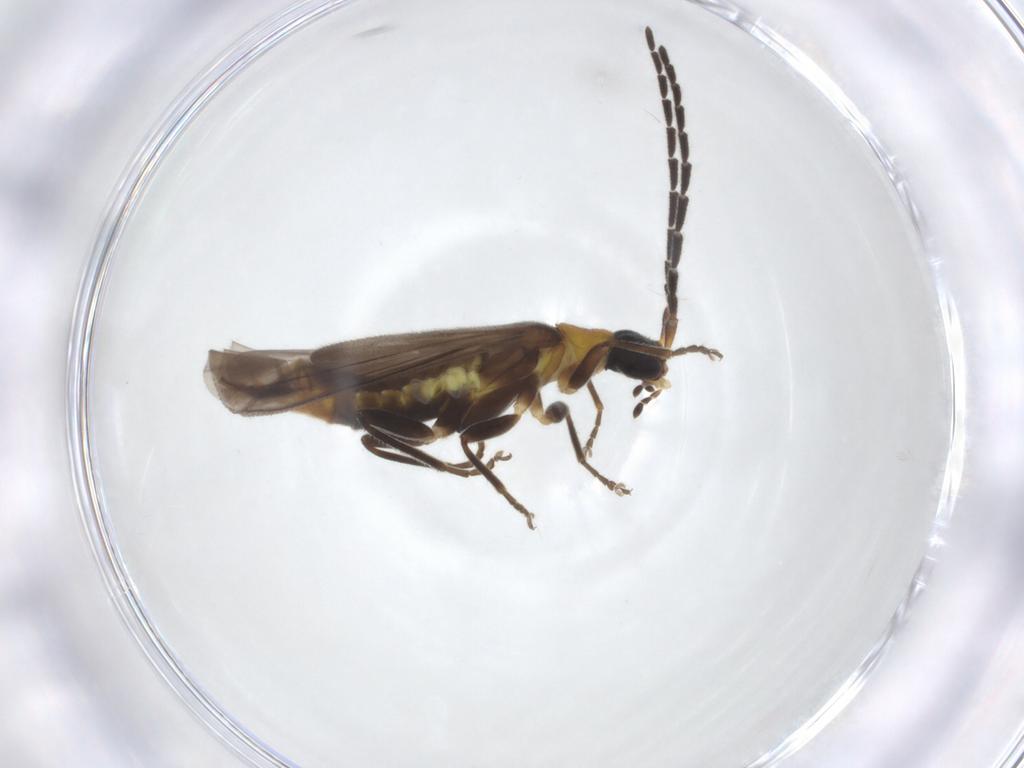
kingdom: Animalia
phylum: Arthropoda
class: Insecta
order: Coleoptera
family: Cantharidae
